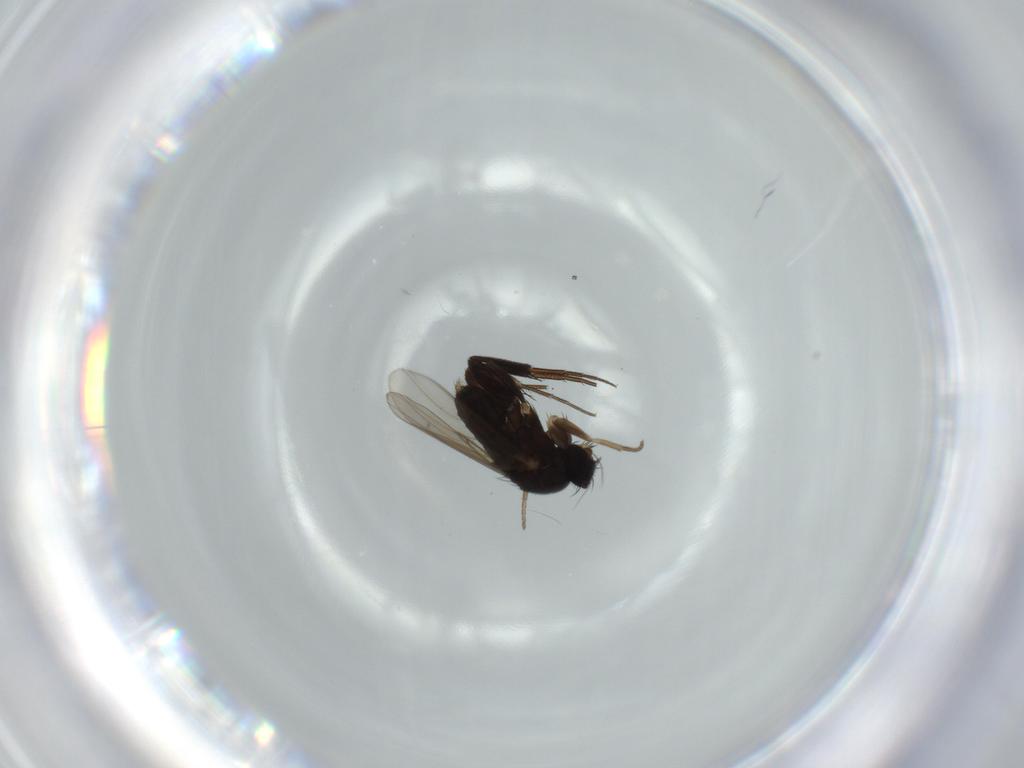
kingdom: Animalia
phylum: Arthropoda
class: Insecta
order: Diptera
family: Phoridae
